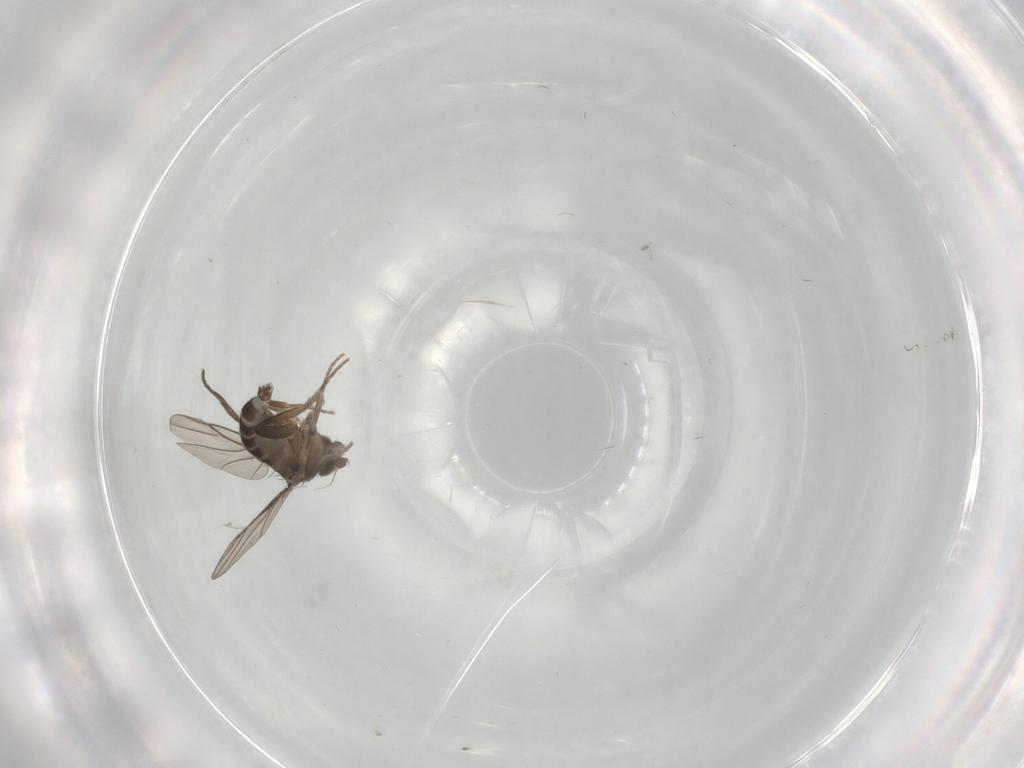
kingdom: Animalia
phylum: Arthropoda
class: Insecta
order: Diptera
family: Phoridae
